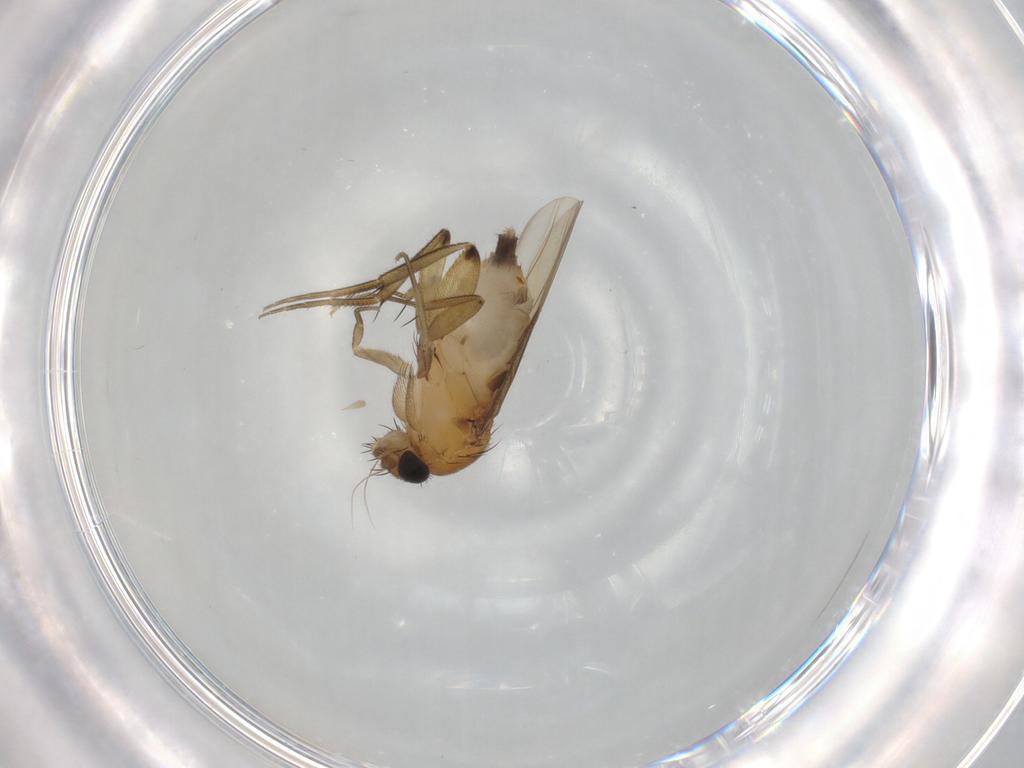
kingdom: Animalia
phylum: Arthropoda
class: Insecta
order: Diptera
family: Phoridae
